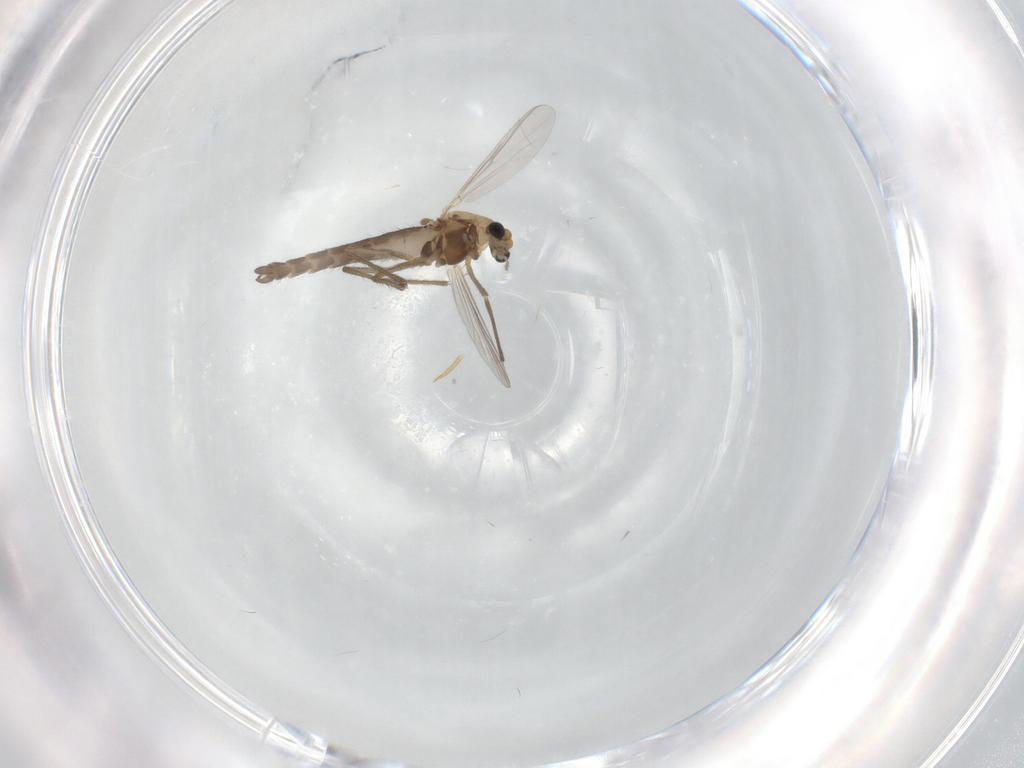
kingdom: Animalia
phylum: Arthropoda
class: Insecta
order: Diptera
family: Chironomidae
